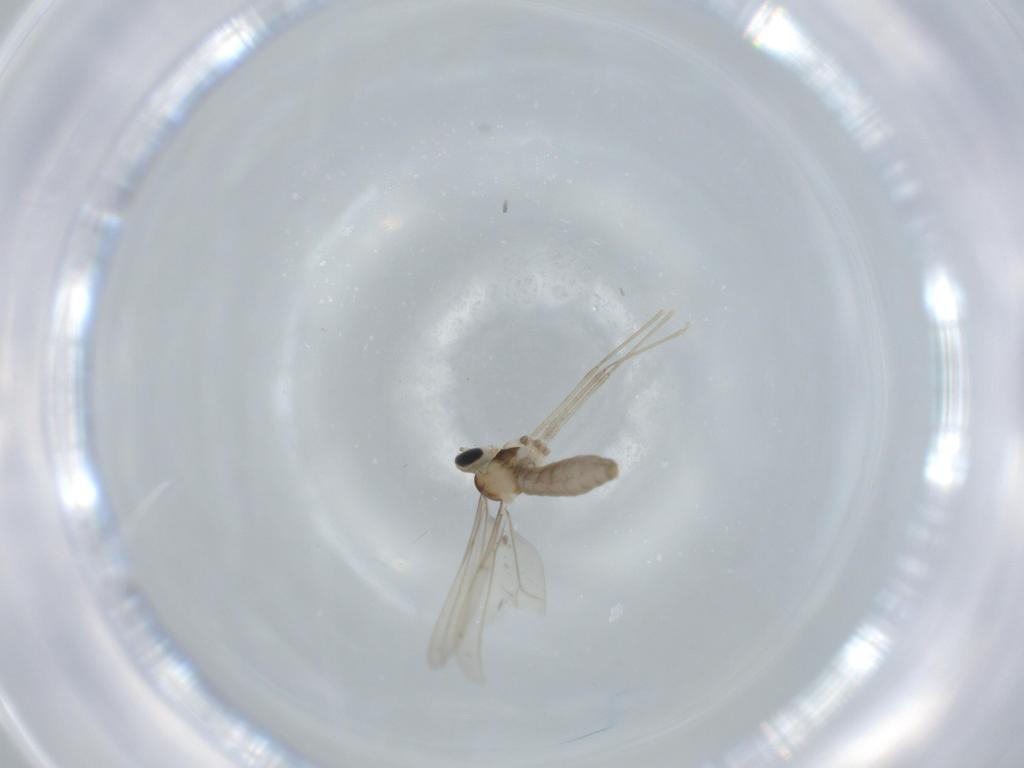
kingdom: Animalia
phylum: Arthropoda
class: Insecta
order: Diptera
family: Cecidomyiidae
